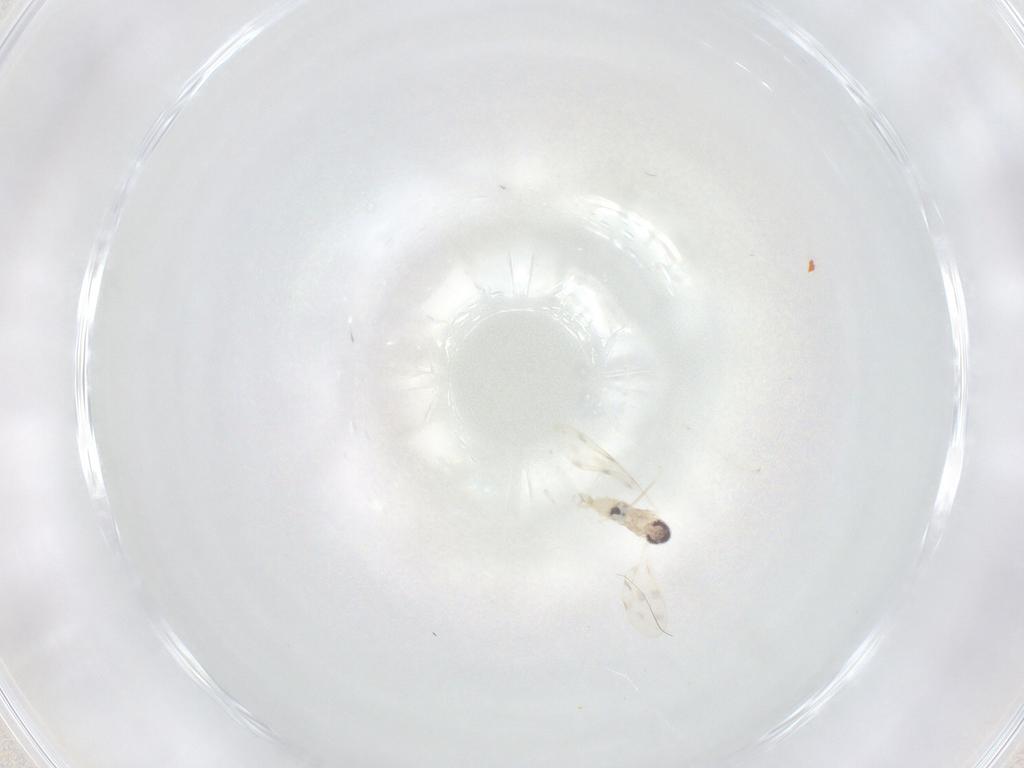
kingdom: Animalia
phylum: Arthropoda
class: Insecta
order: Diptera
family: Cecidomyiidae
